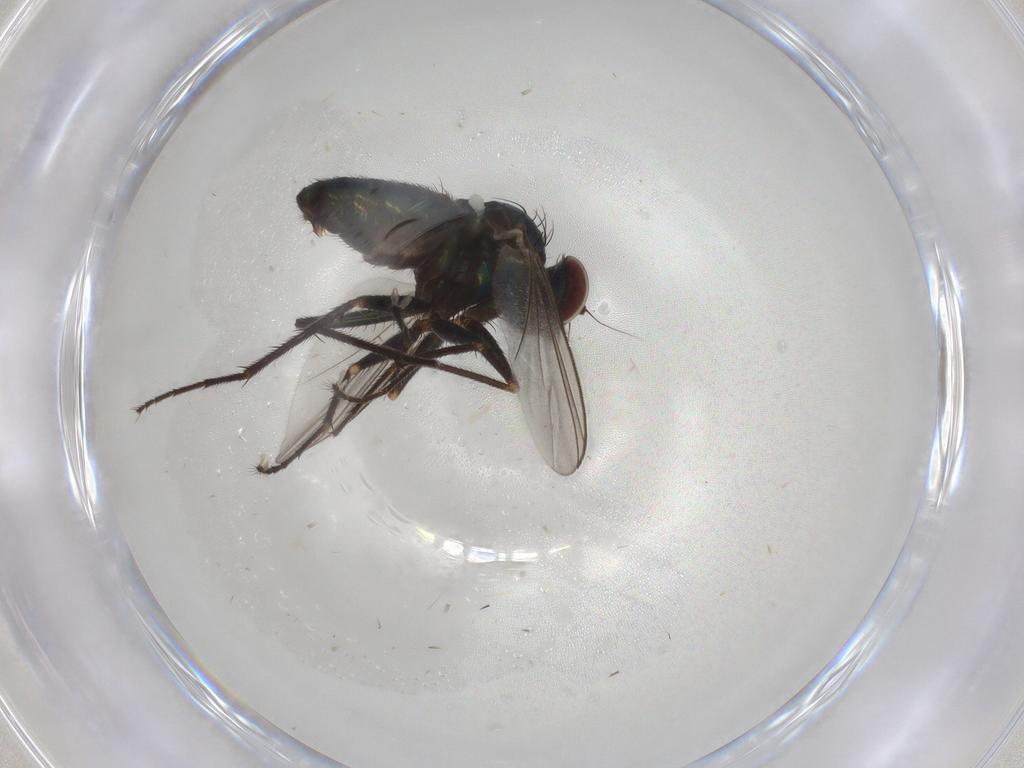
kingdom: Animalia
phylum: Arthropoda
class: Insecta
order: Diptera
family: Dolichopodidae
